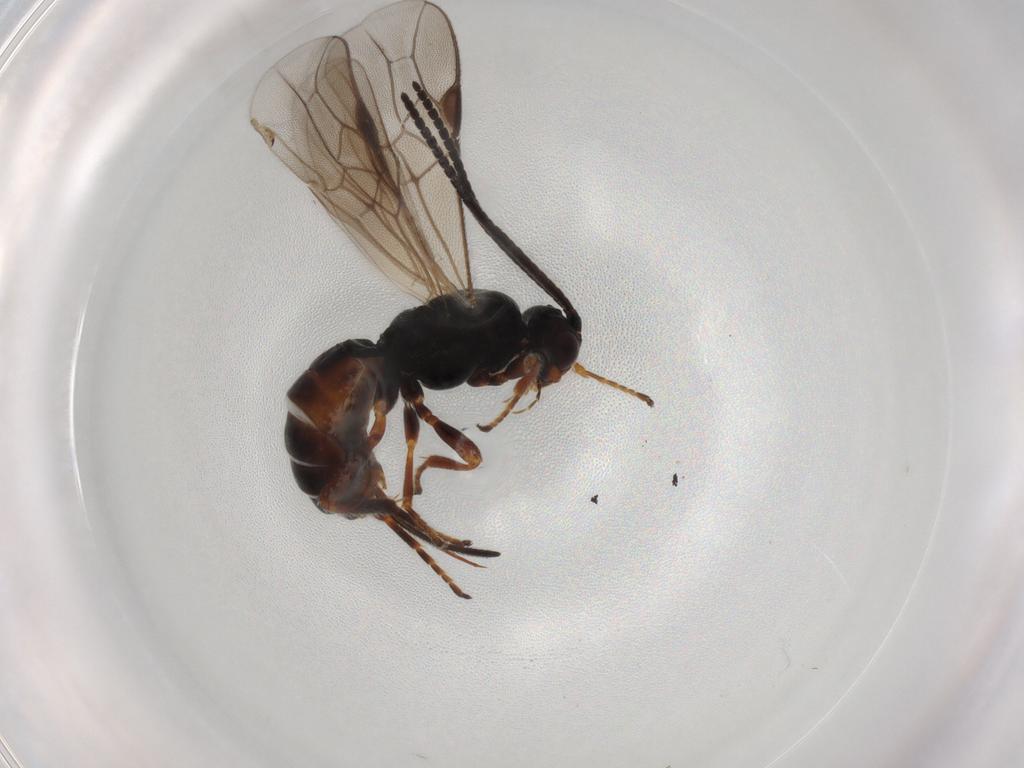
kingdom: Animalia
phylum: Arthropoda
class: Insecta
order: Hymenoptera
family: Braconidae
